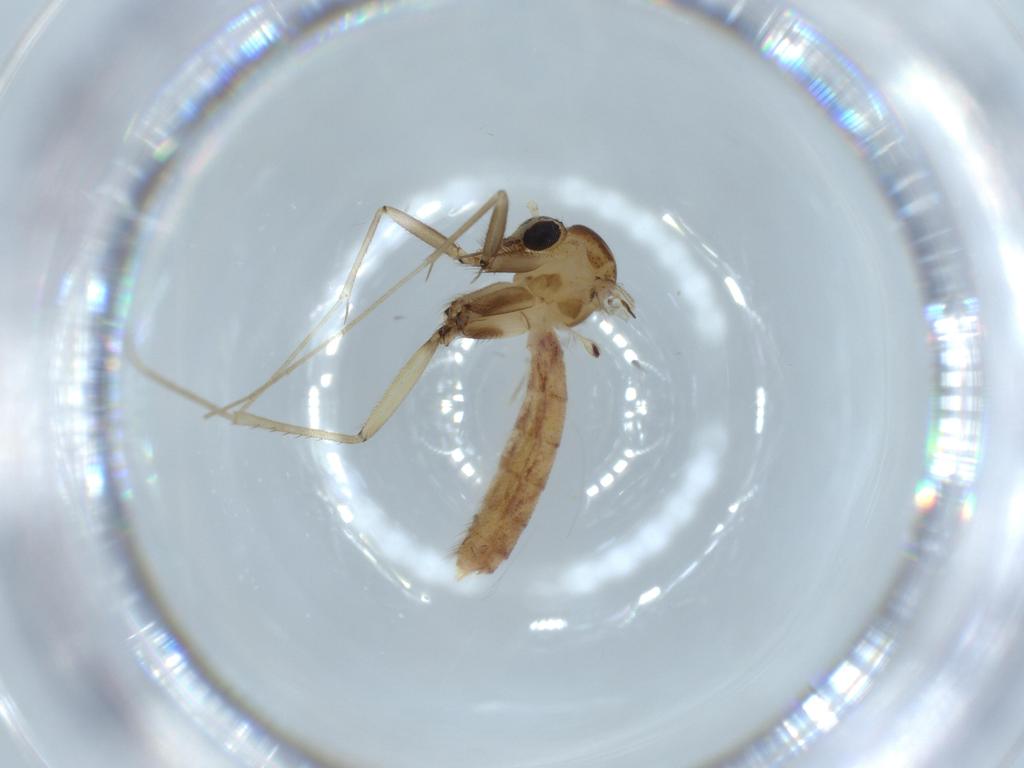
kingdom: Animalia
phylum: Arthropoda
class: Insecta
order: Diptera
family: Mycetophilidae
